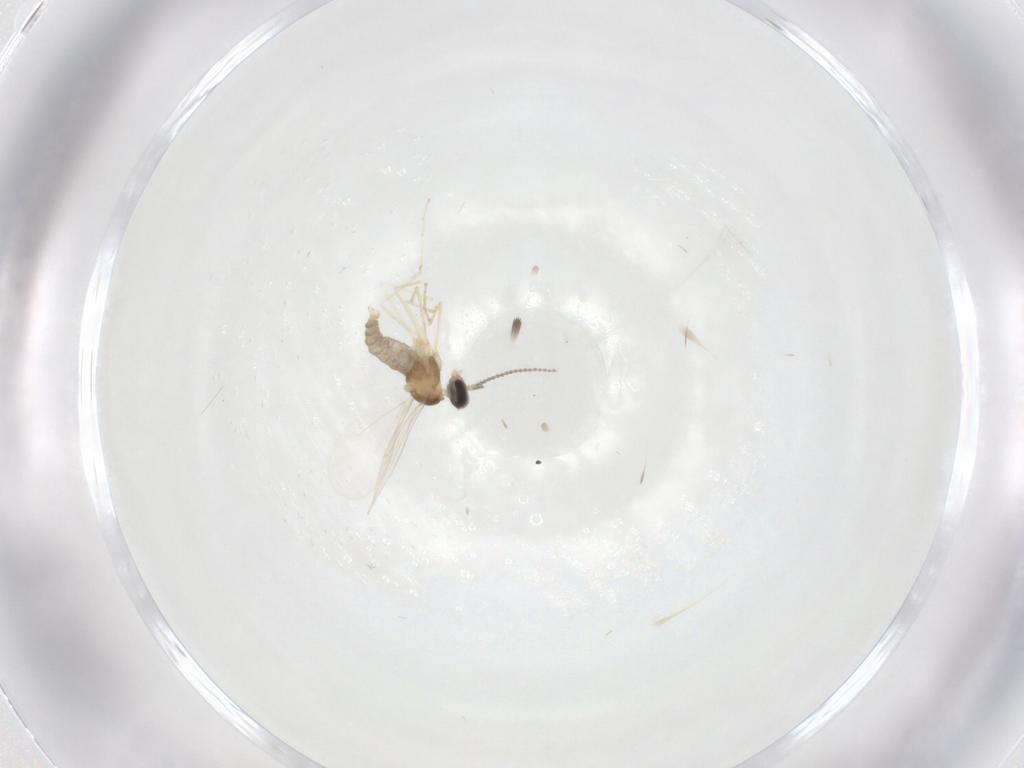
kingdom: Animalia
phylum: Arthropoda
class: Insecta
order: Diptera
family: Cecidomyiidae
